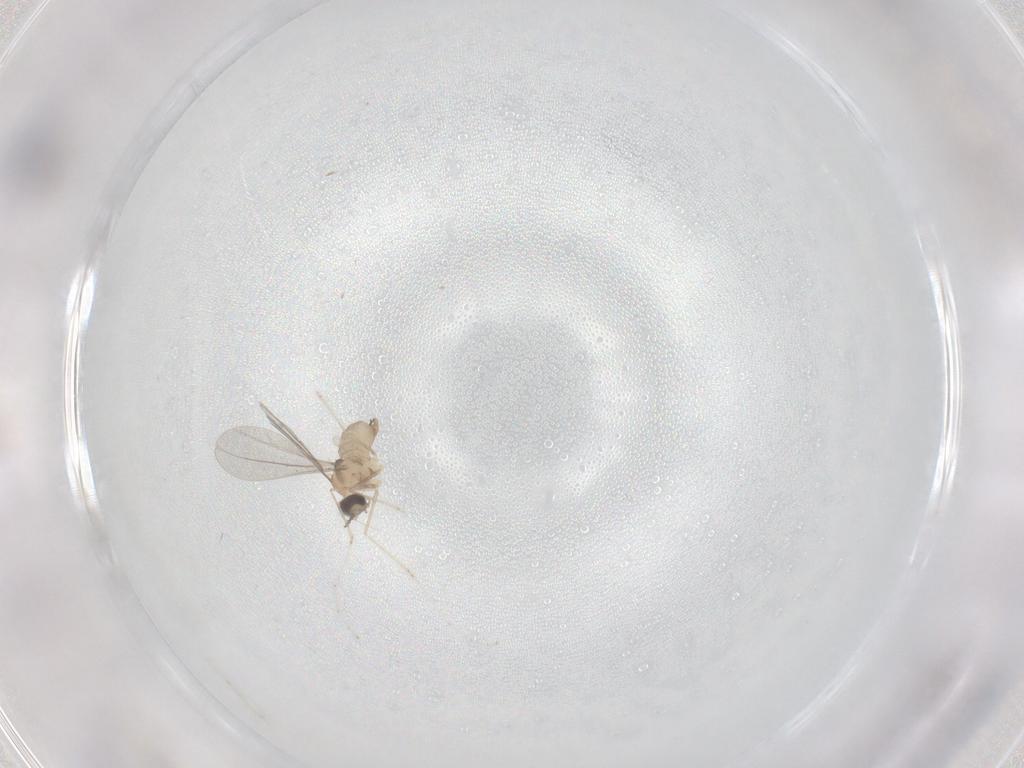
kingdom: Animalia
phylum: Arthropoda
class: Insecta
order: Diptera
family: Cecidomyiidae
